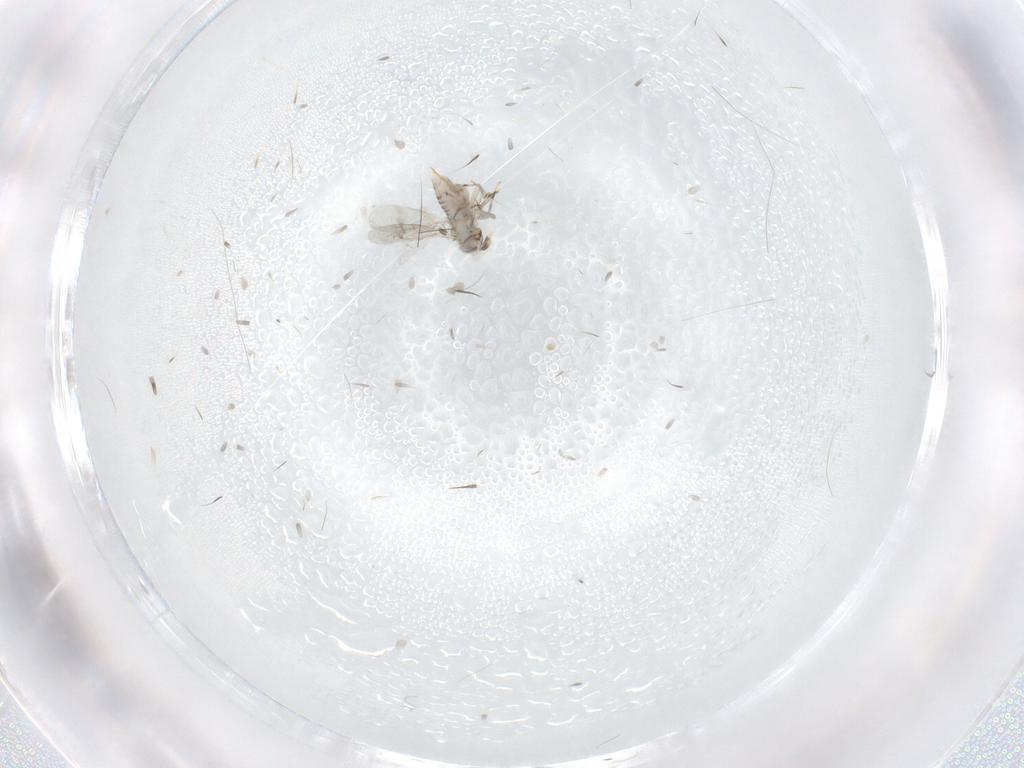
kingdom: Animalia
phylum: Arthropoda
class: Insecta
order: Hymenoptera
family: Aphelinidae
